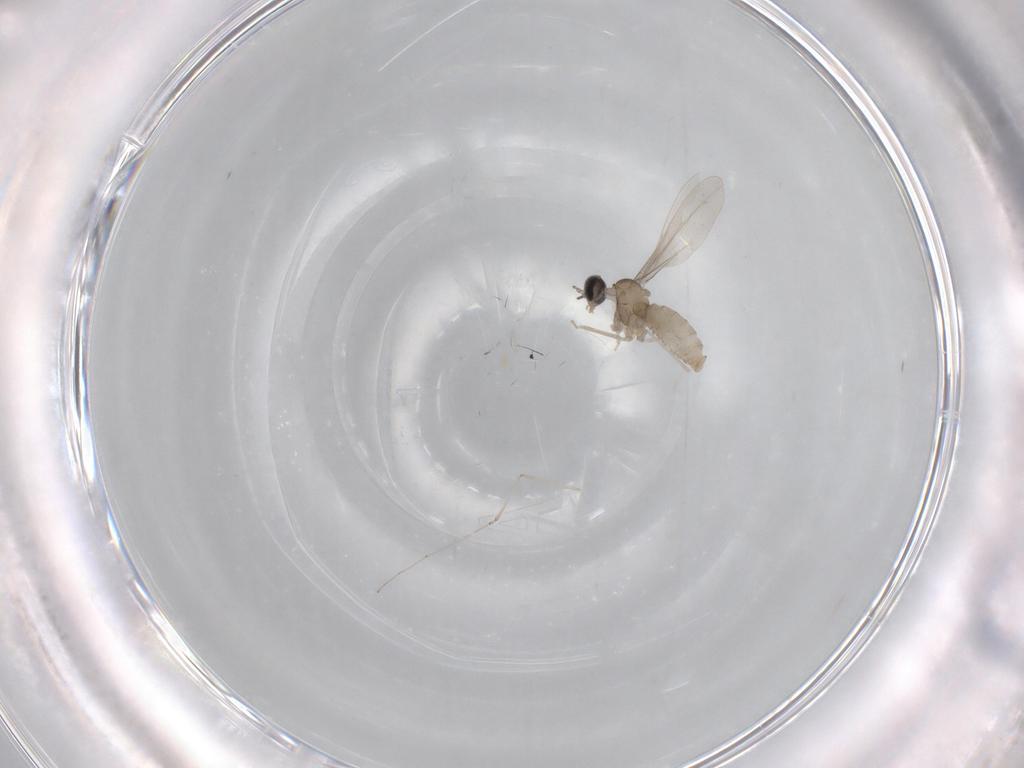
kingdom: Animalia
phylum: Arthropoda
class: Insecta
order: Diptera
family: Cecidomyiidae
